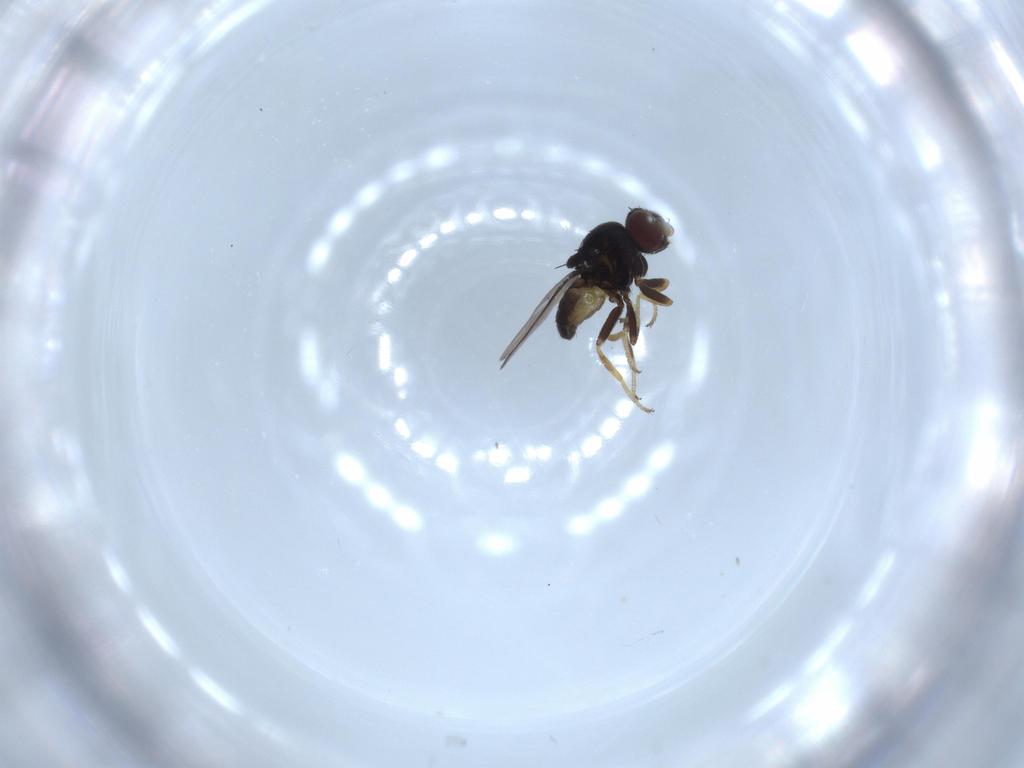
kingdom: Animalia
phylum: Arthropoda
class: Insecta
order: Diptera
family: Chloropidae
